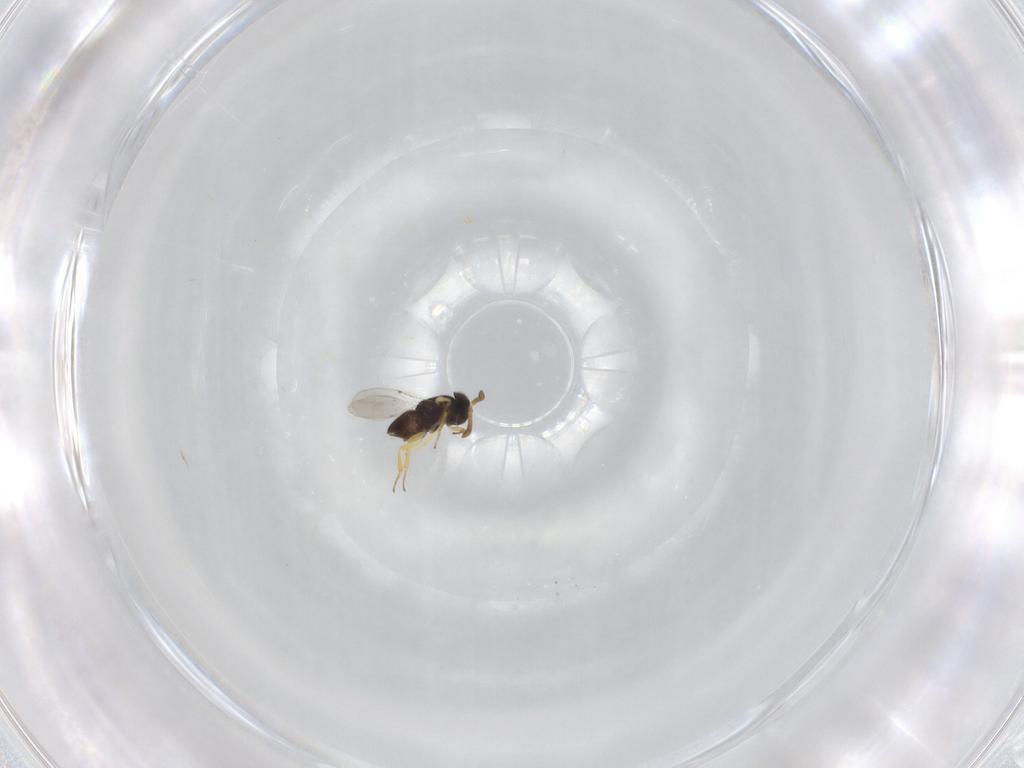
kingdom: Animalia
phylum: Arthropoda
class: Insecta
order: Hymenoptera
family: Encyrtidae
